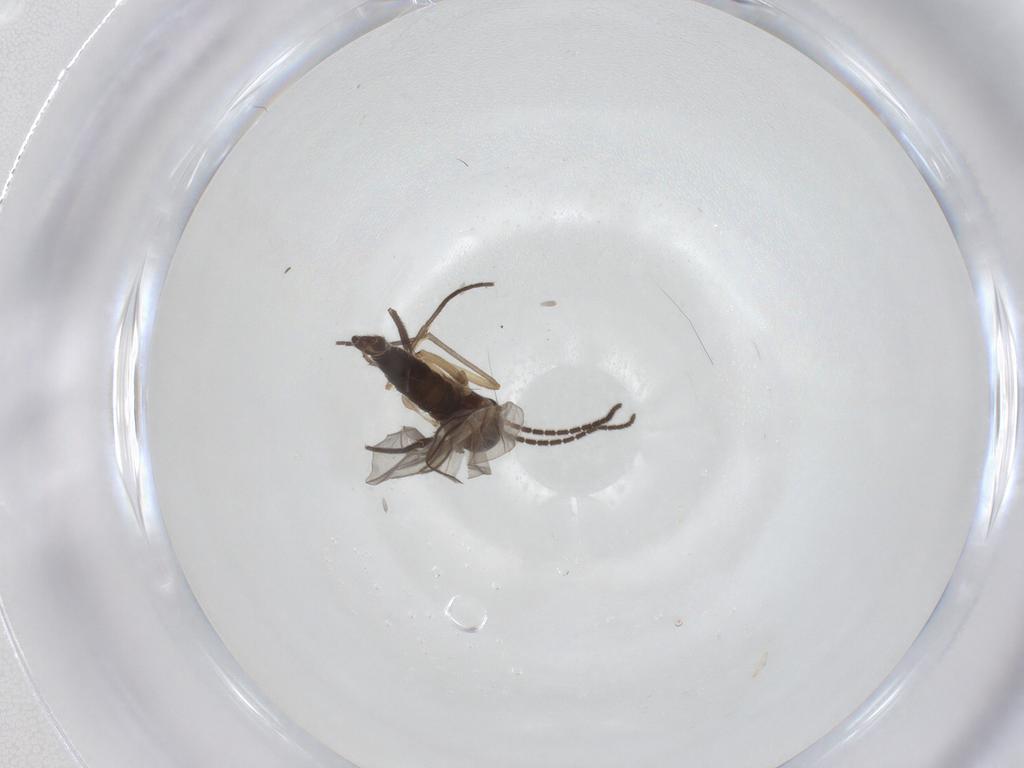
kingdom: Animalia
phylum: Arthropoda
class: Insecta
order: Diptera
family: Sciaridae
